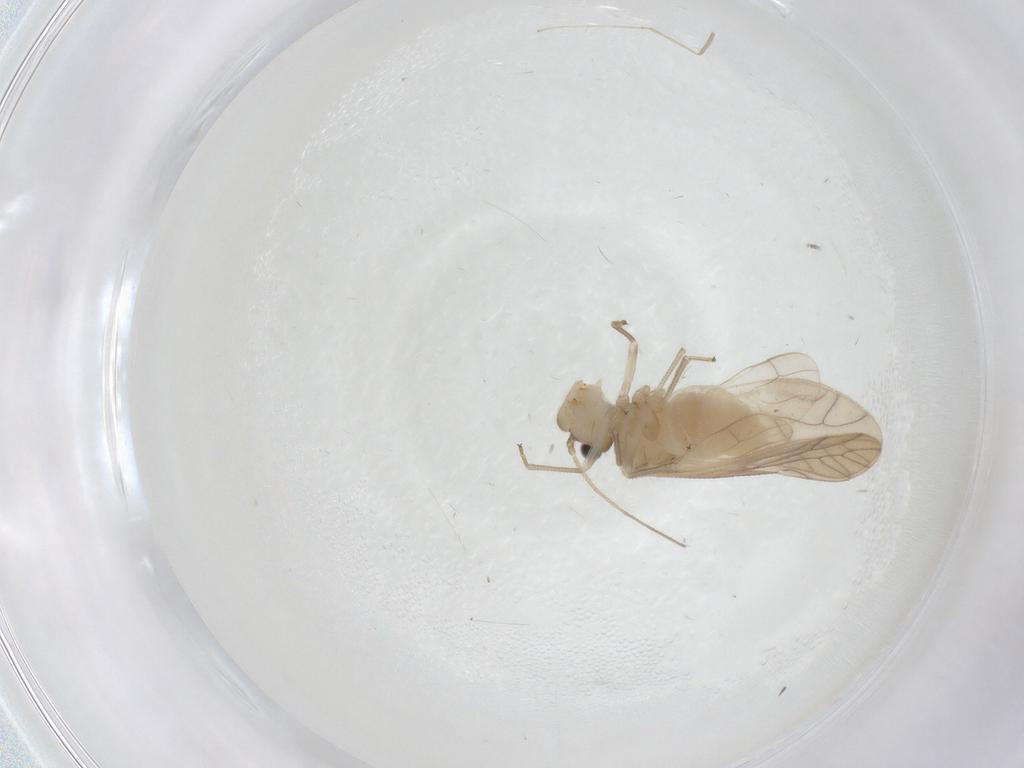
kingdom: Animalia
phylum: Arthropoda
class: Insecta
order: Psocodea
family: Caeciliusidae
